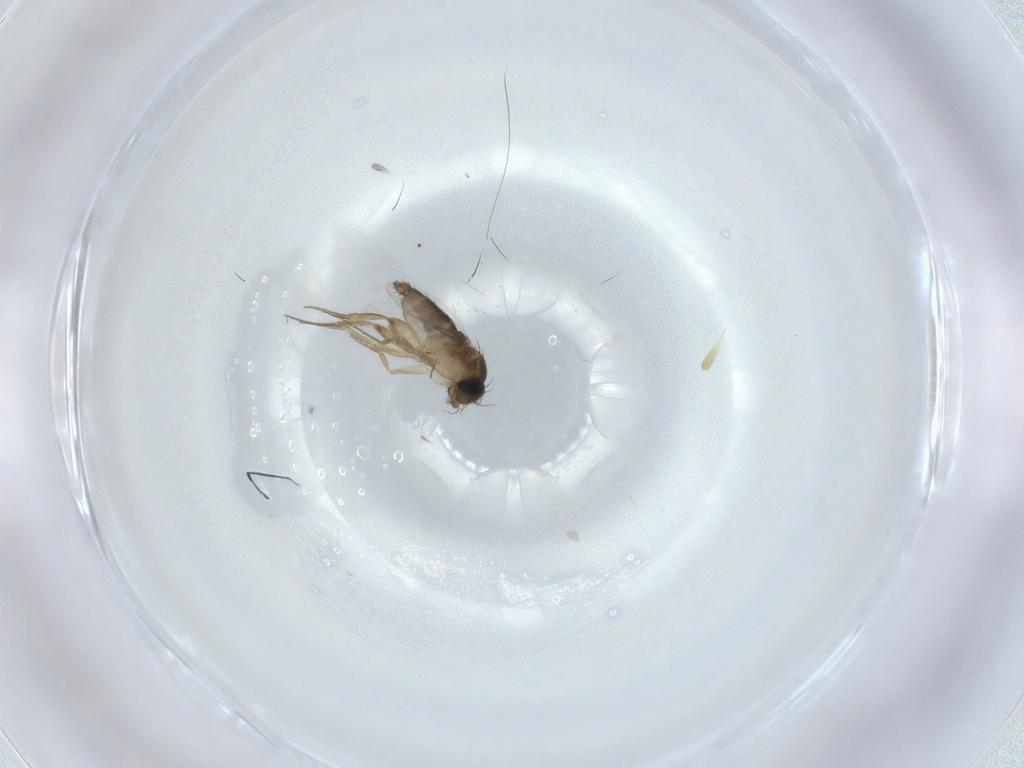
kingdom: Animalia
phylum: Arthropoda
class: Insecta
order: Diptera
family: Phoridae
